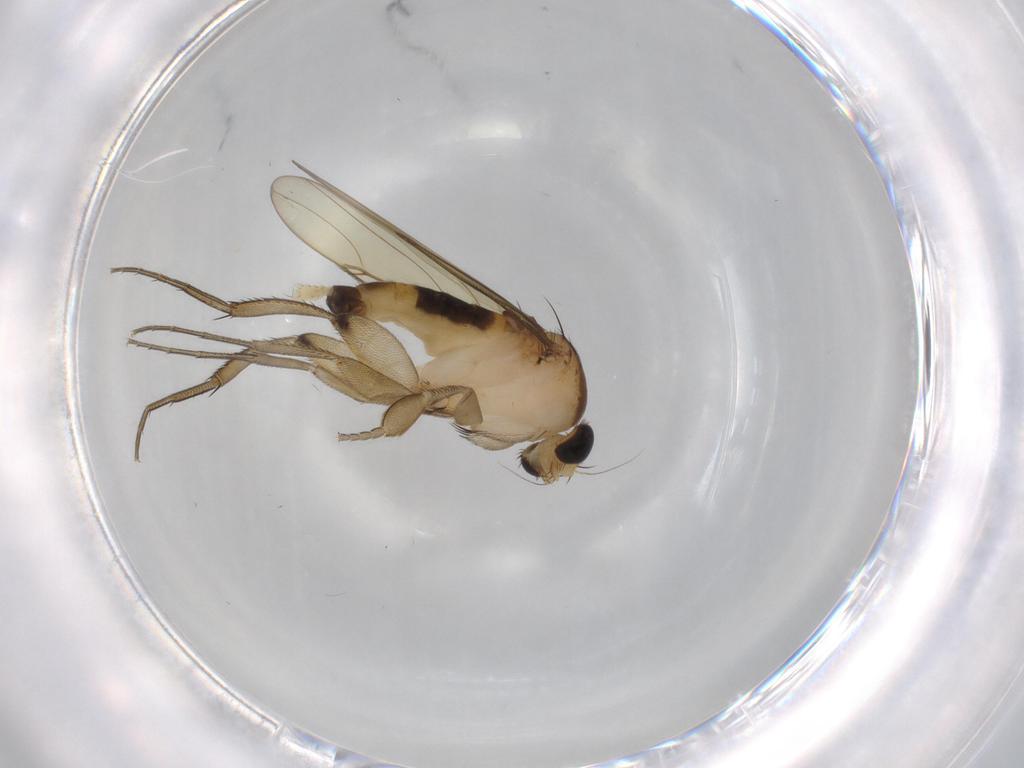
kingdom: Animalia
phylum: Arthropoda
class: Insecta
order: Diptera
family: Phoridae
